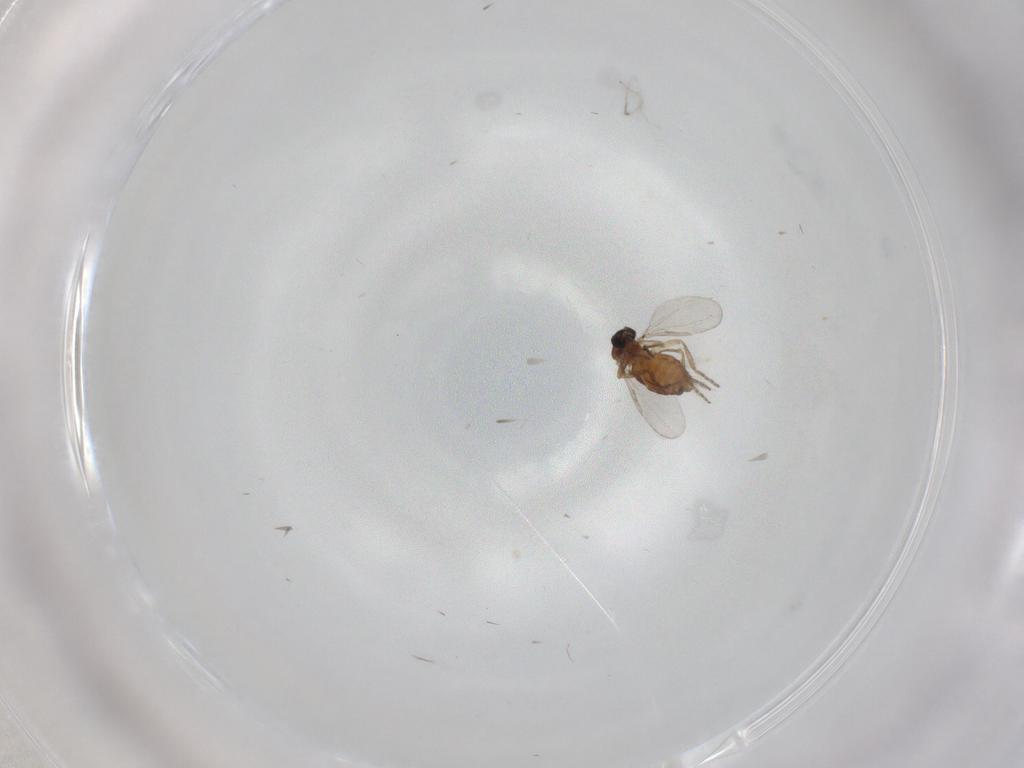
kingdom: Animalia
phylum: Arthropoda
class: Insecta
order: Diptera
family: Ceratopogonidae
